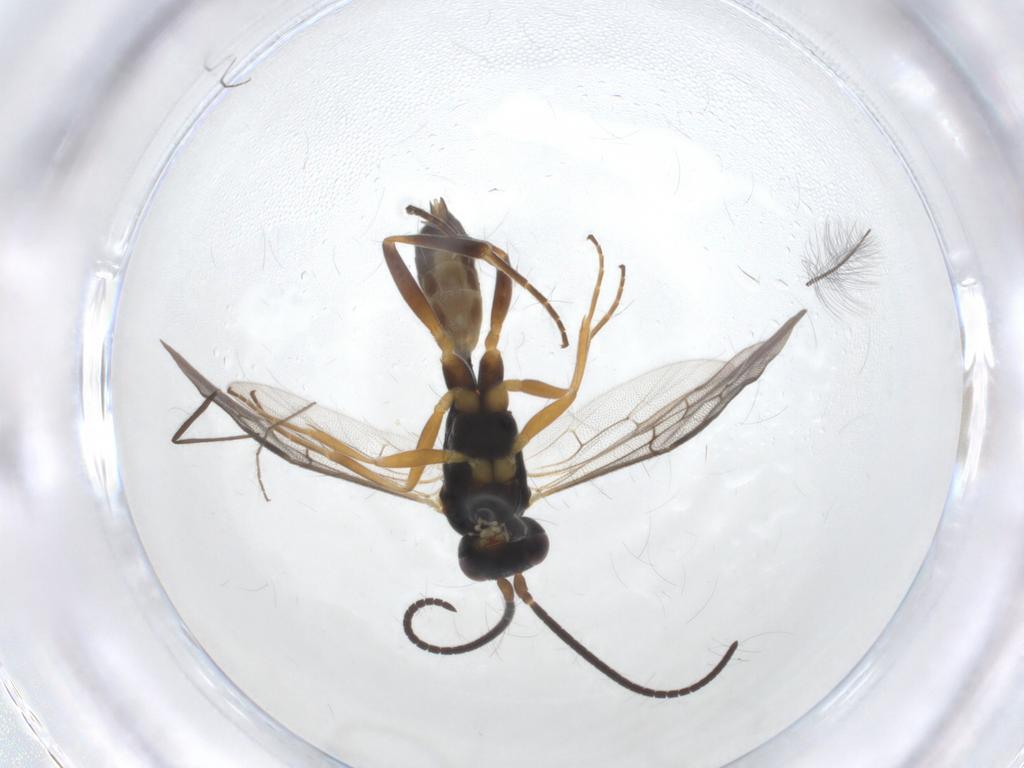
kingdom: Animalia
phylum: Arthropoda
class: Insecta
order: Hymenoptera
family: Ichneumonidae
